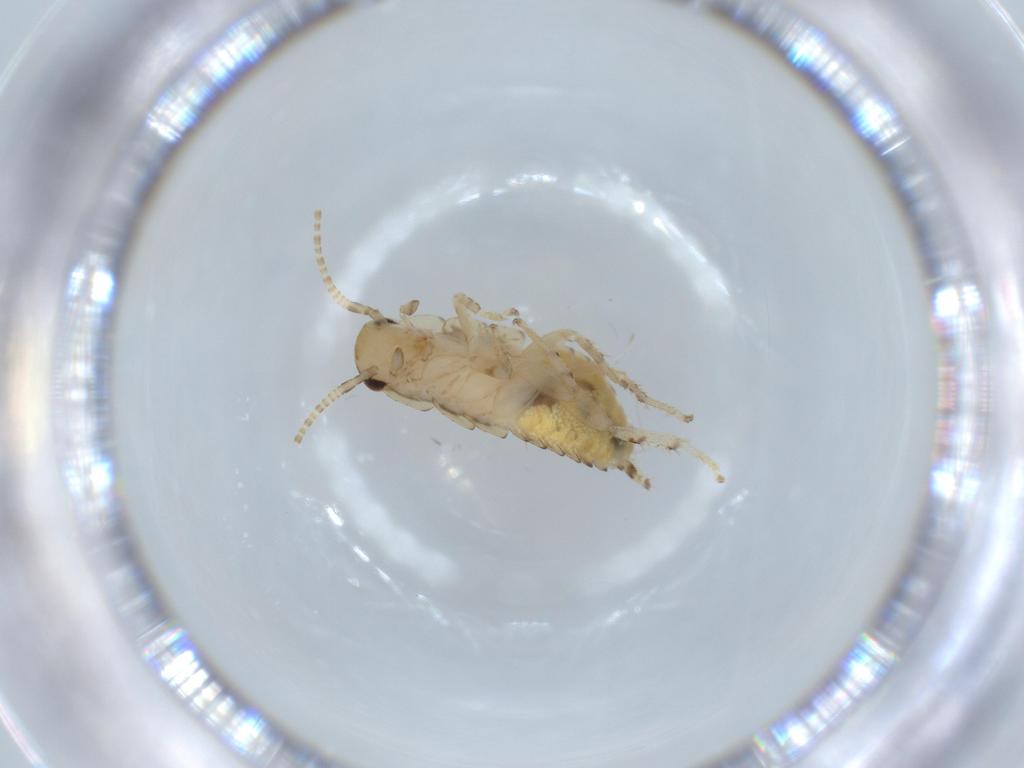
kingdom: Animalia
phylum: Arthropoda
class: Insecta
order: Blattodea
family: Ectobiidae
